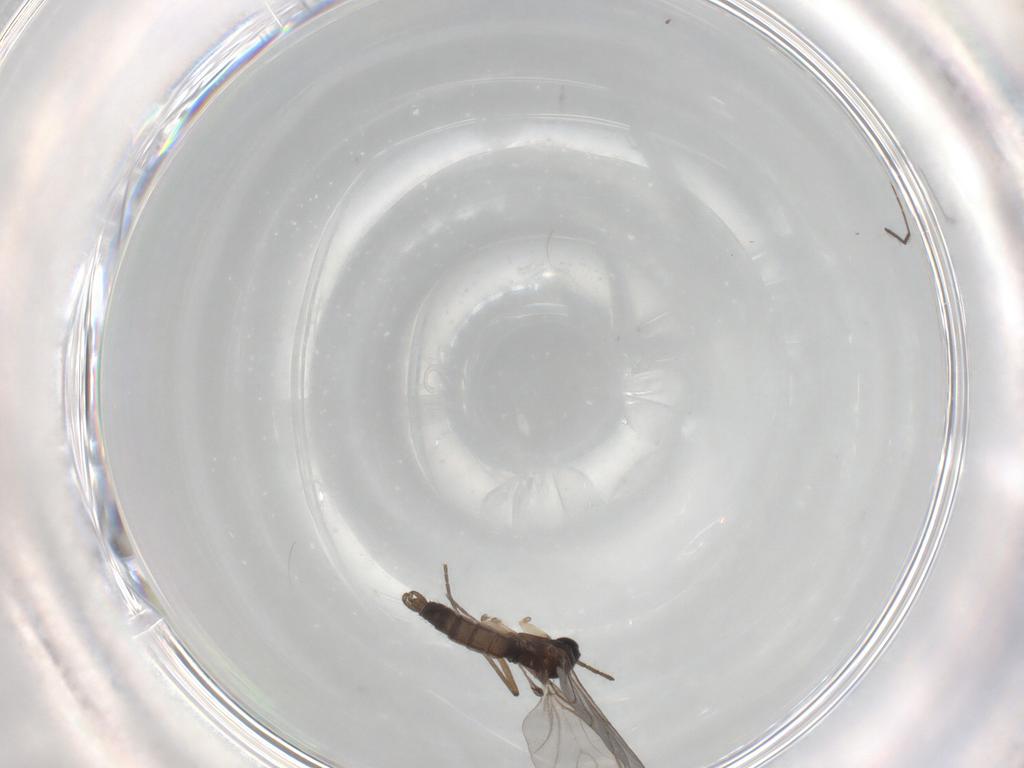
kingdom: Animalia
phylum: Arthropoda
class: Insecta
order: Diptera
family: Sciaridae
